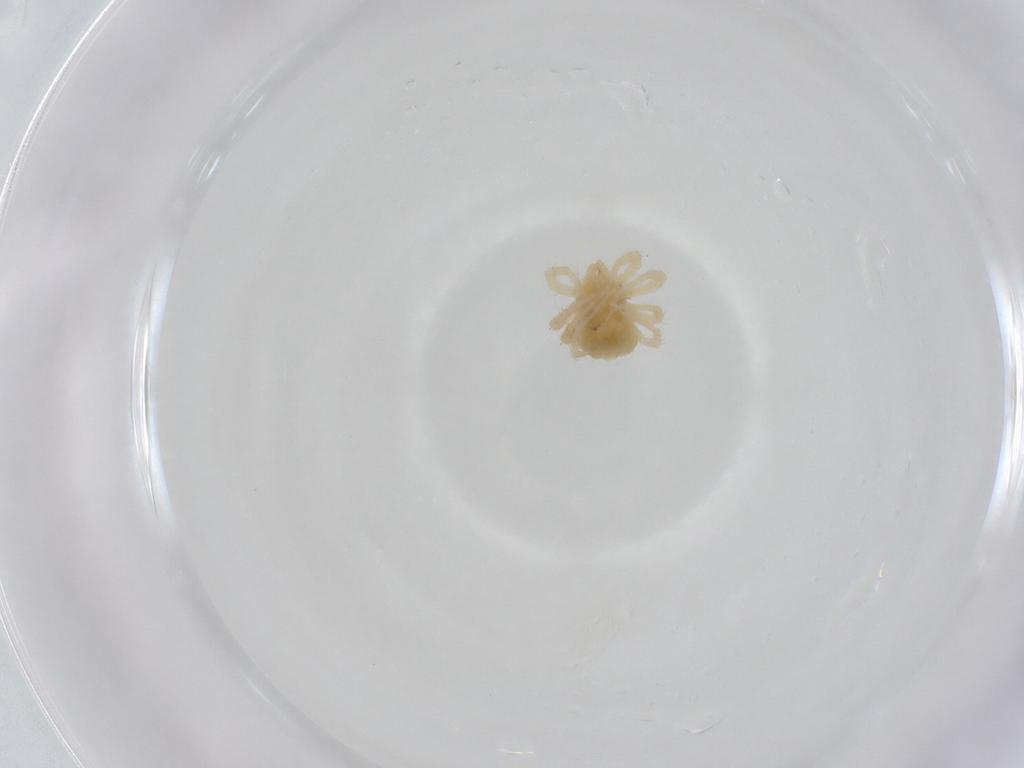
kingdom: Animalia
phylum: Arthropoda
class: Arachnida
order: Trombidiformes
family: Anystidae
